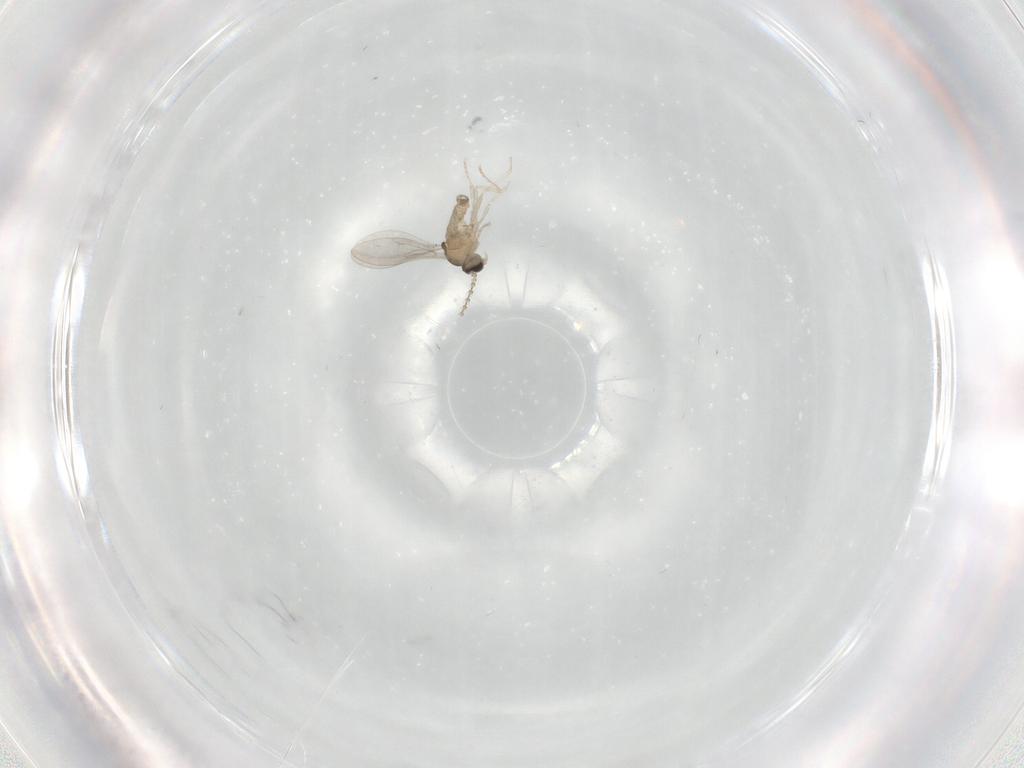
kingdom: Animalia
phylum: Arthropoda
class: Insecta
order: Diptera
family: Cecidomyiidae
